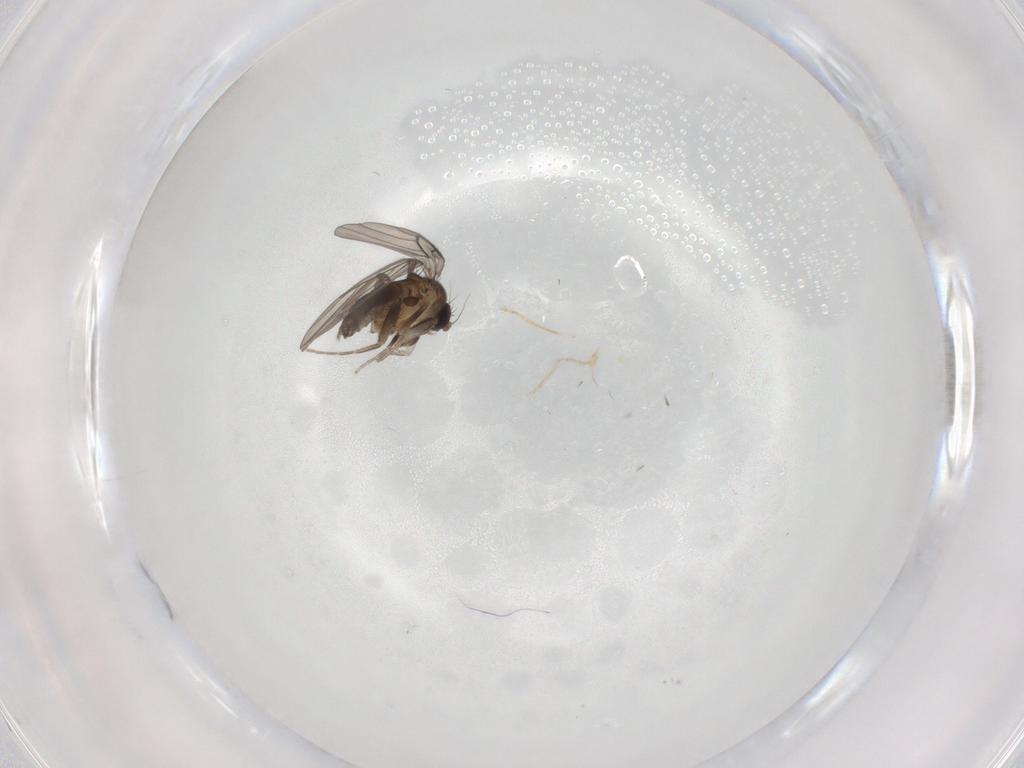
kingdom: Animalia
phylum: Arthropoda
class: Insecta
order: Diptera
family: Phoridae
